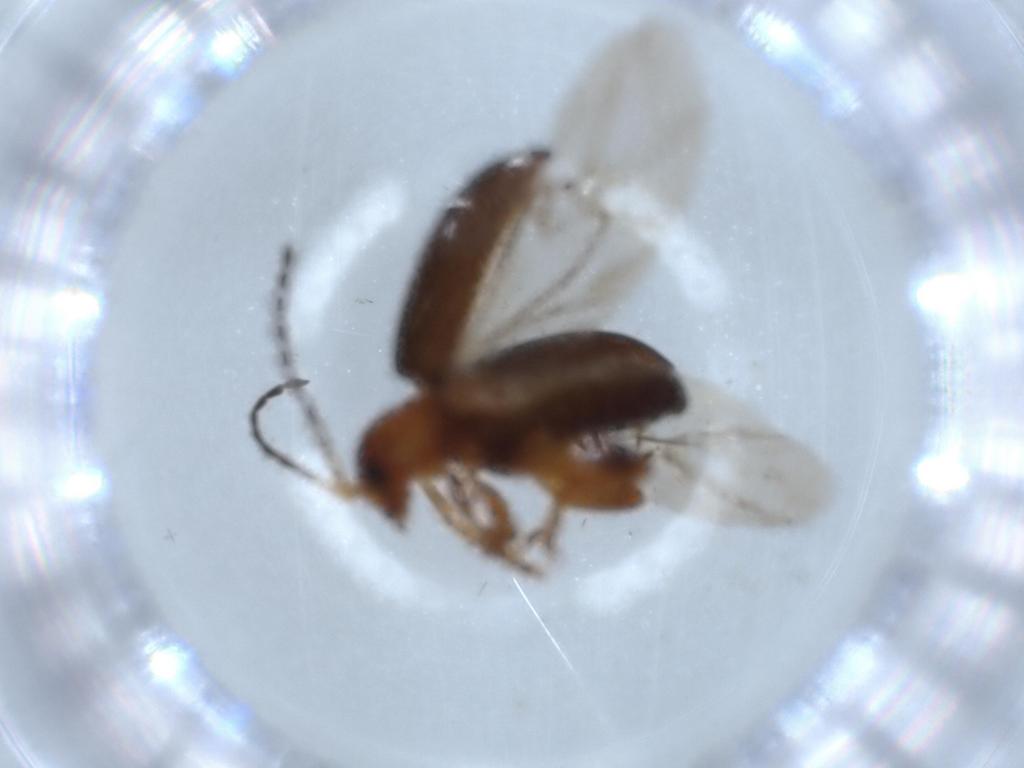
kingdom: Animalia
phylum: Arthropoda
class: Insecta
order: Coleoptera
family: Chrysomelidae
